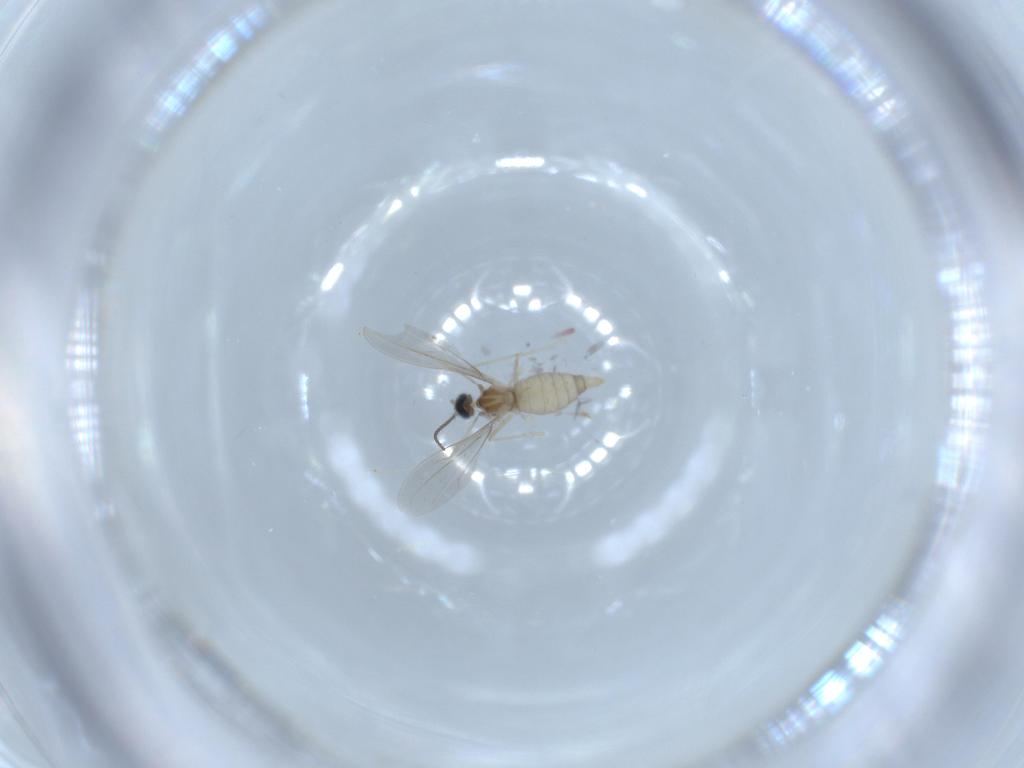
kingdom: Animalia
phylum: Arthropoda
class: Insecta
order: Diptera
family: Cecidomyiidae
